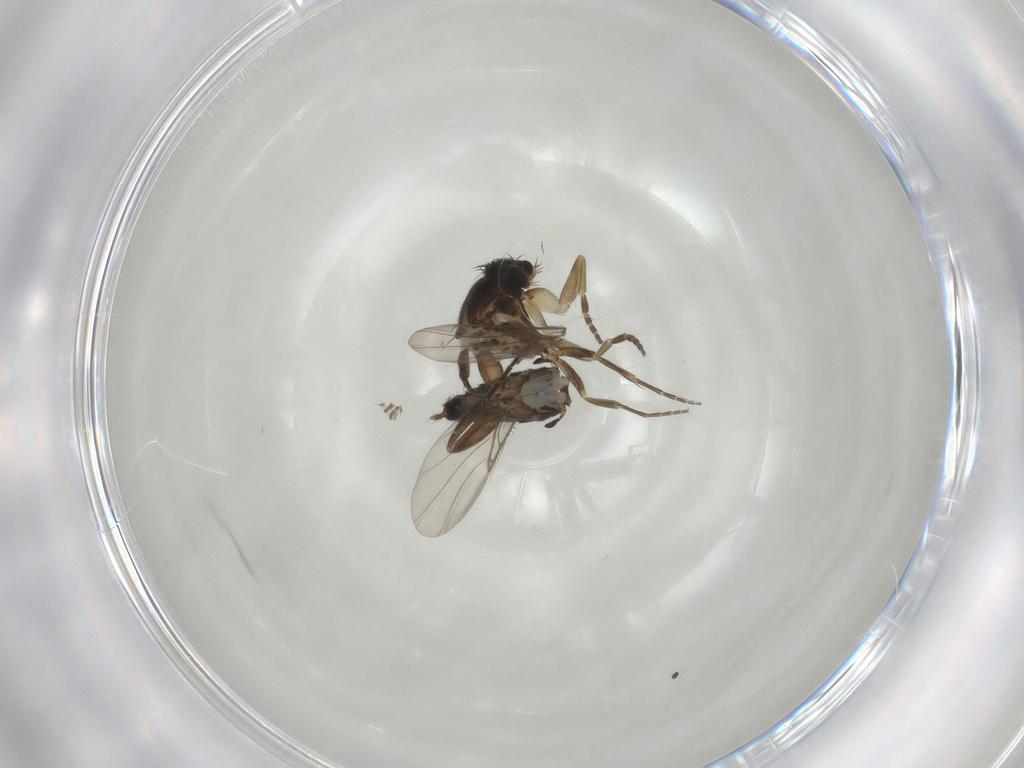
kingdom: Animalia
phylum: Arthropoda
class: Insecta
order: Diptera
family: Phoridae
